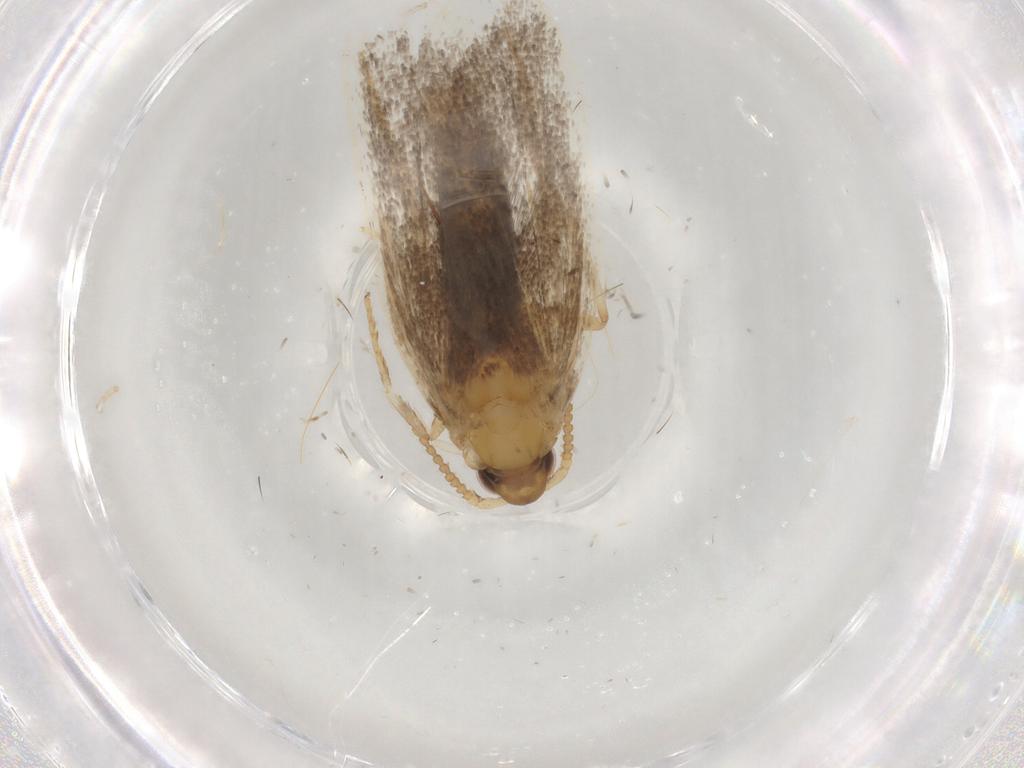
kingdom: Animalia
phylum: Arthropoda
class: Insecta
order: Lepidoptera
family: Lecithoceridae
